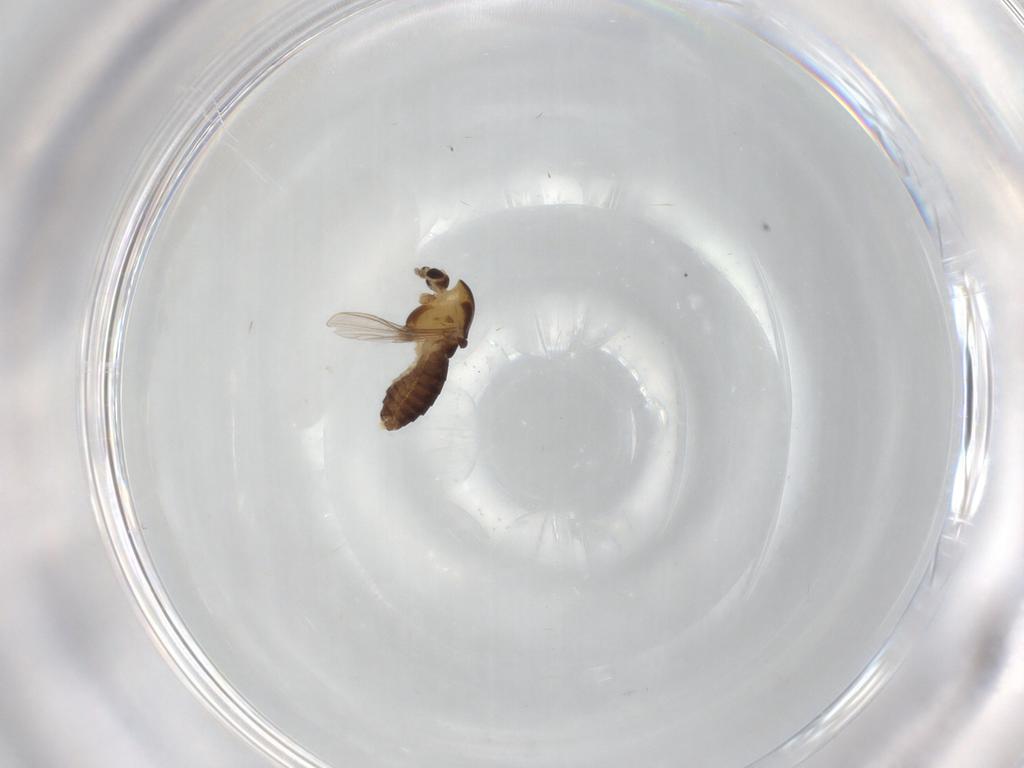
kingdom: Animalia
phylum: Arthropoda
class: Insecta
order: Diptera
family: Chironomidae
